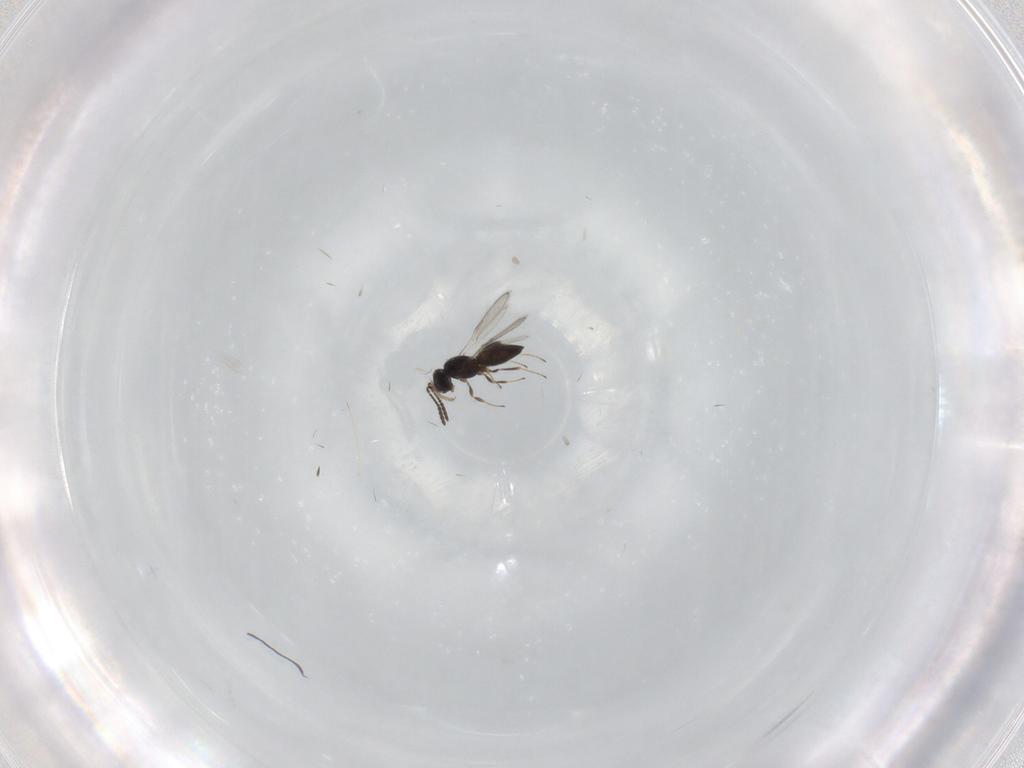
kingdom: Animalia
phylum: Arthropoda
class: Insecta
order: Hymenoptera
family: Scelionidae
